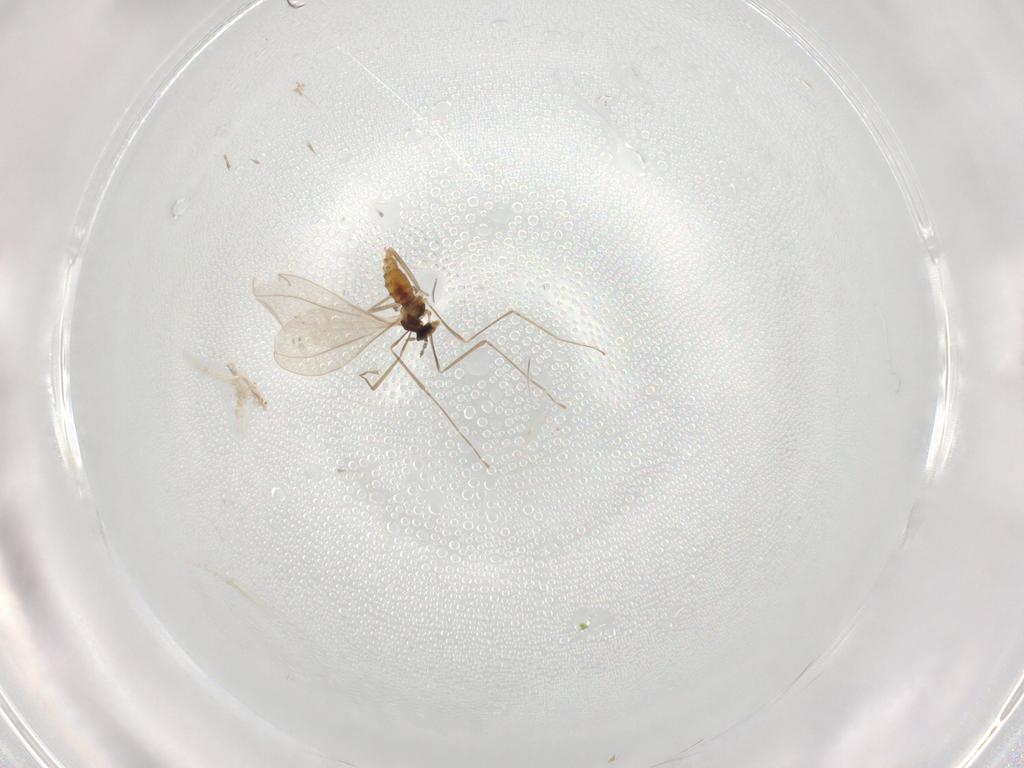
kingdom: Animalia
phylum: Arthropoda
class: Insecta
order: Diptera
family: Cecidomyiidae
